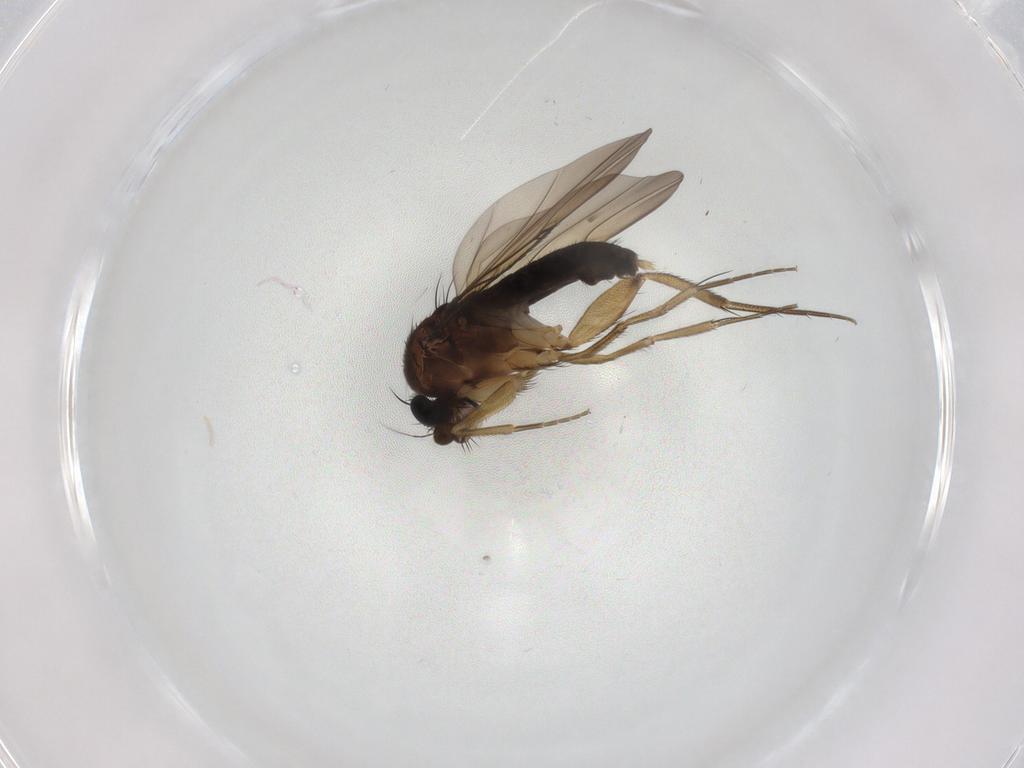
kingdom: Animalia
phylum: Arthropoda
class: Insecta
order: Diptera
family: Phoridae
